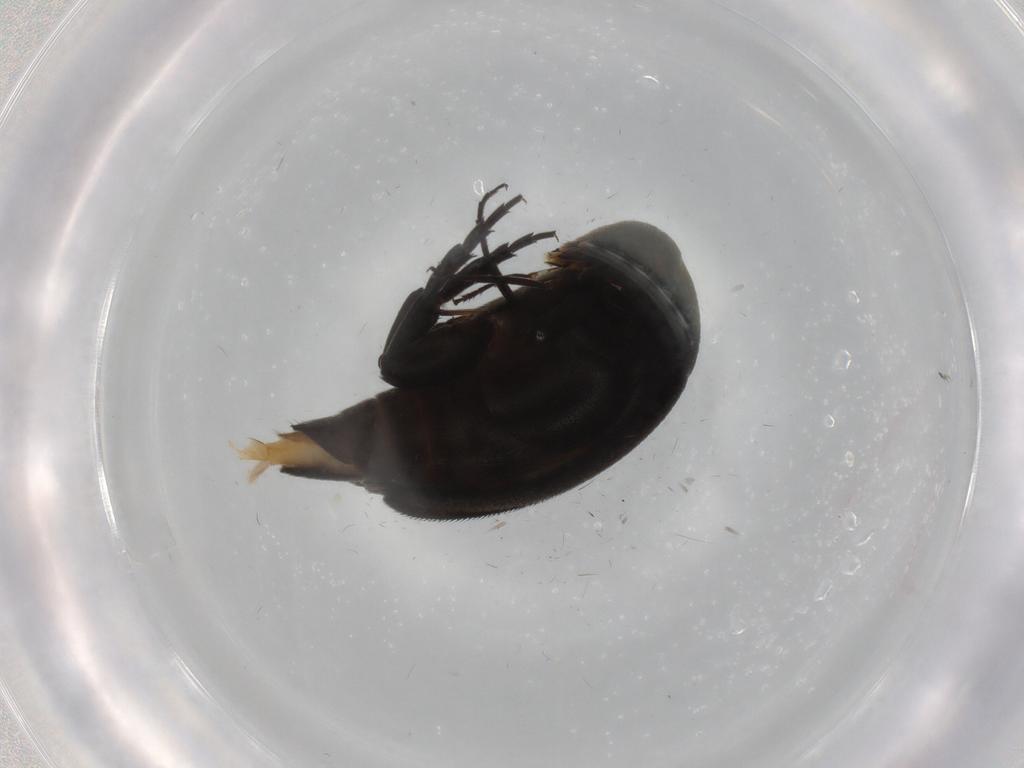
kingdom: Animalia
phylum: Arthropoda
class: Insecta
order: Coleoptera
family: Mordellidae
